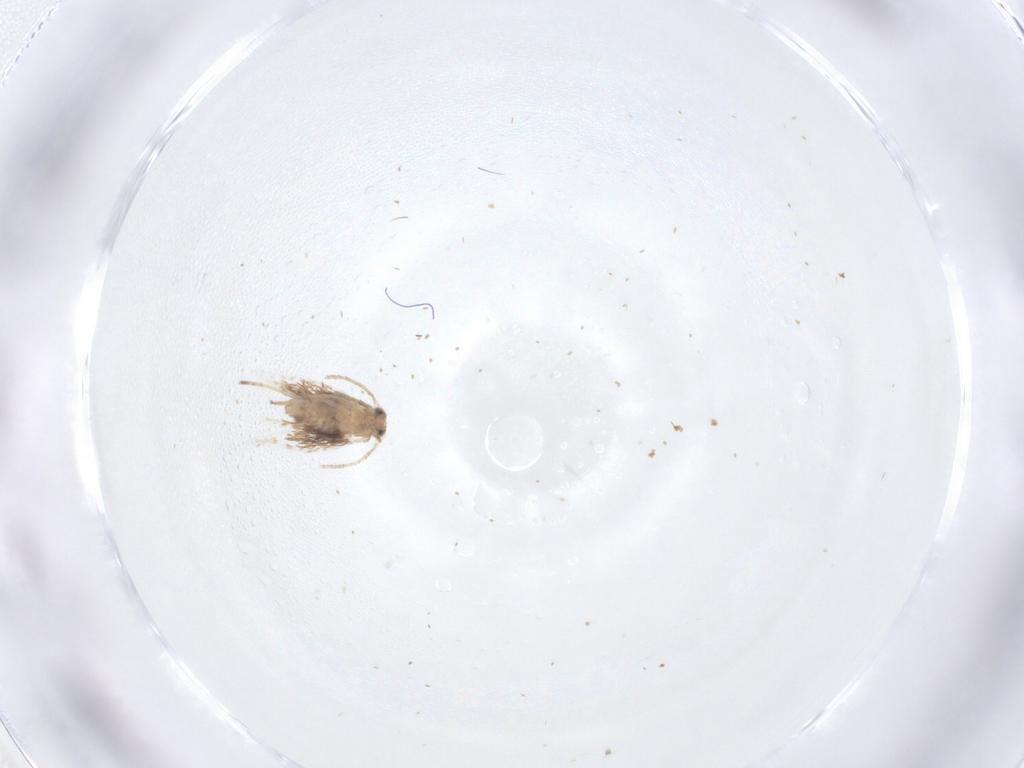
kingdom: Animalia
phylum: Arthropoda
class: Insecta
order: Lepidoptera
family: Nepticulidae
